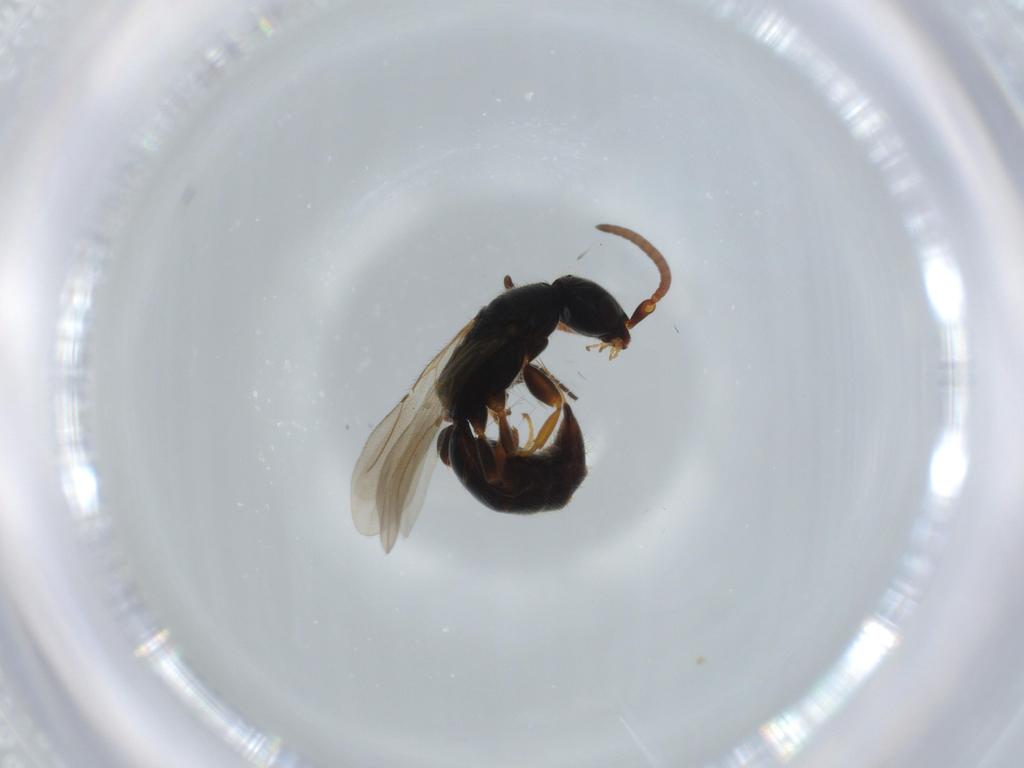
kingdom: Animalia
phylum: Arthropoda
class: Insecta
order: Hymenoptera
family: Bethylidae
